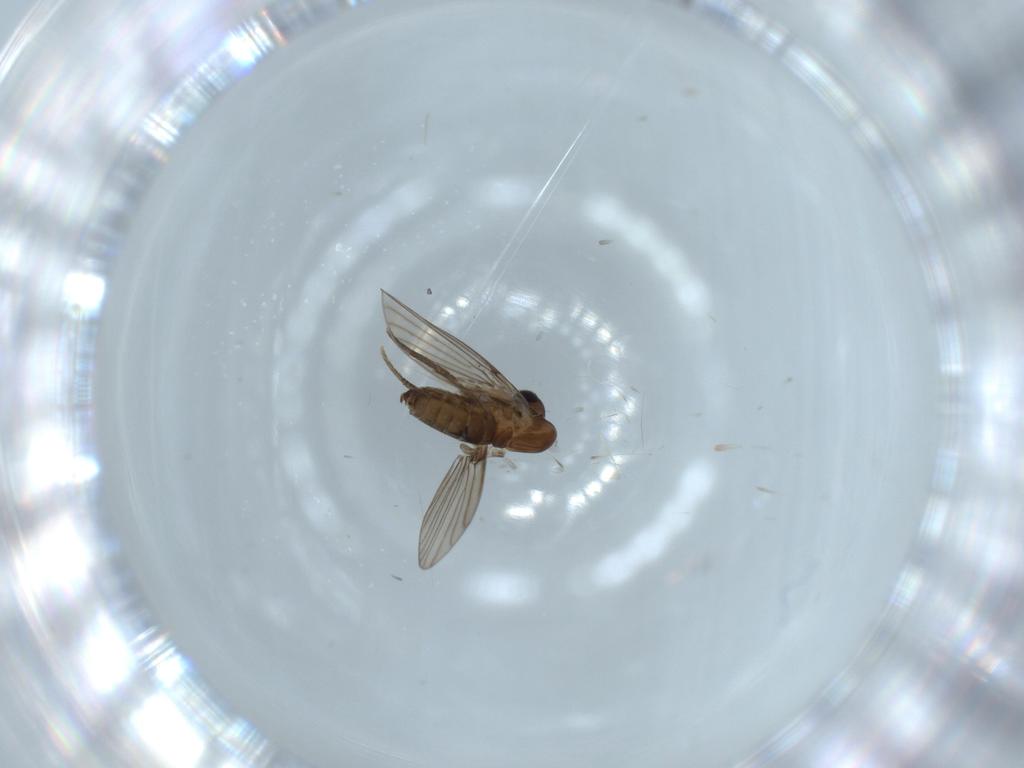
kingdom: Animalia
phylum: Arthropoda
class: Insecta
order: Diptera
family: Psychodidae
